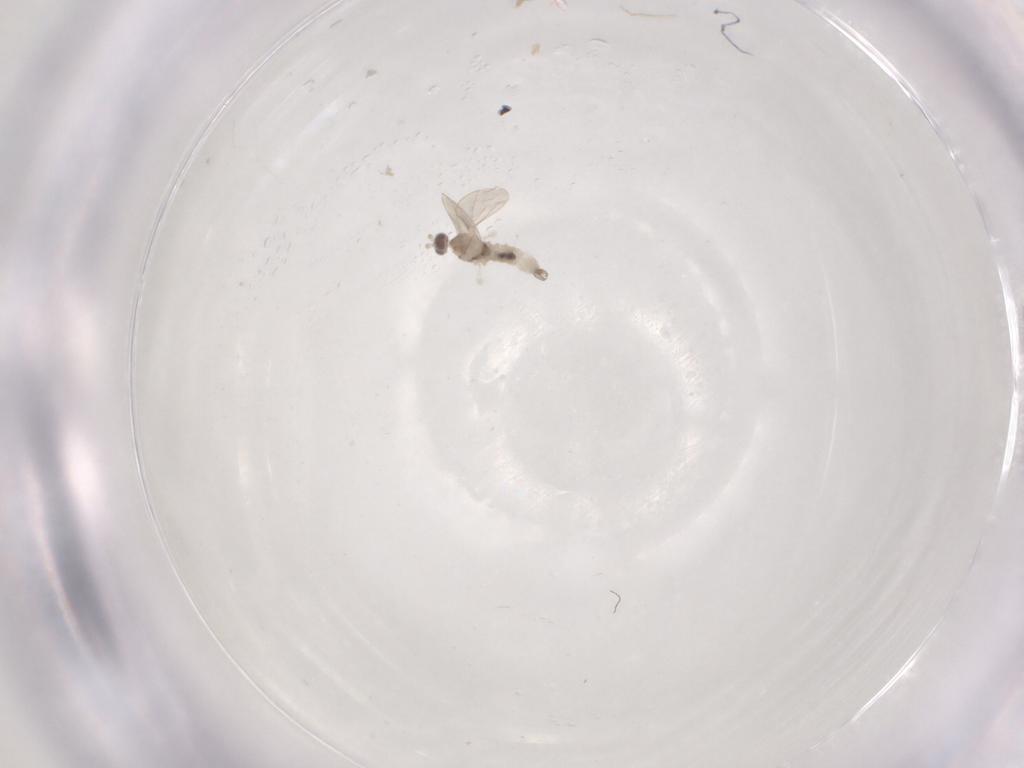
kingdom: Animalia
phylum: Arthropoda
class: Insecta
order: Diptera
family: Cecidomyiidae
